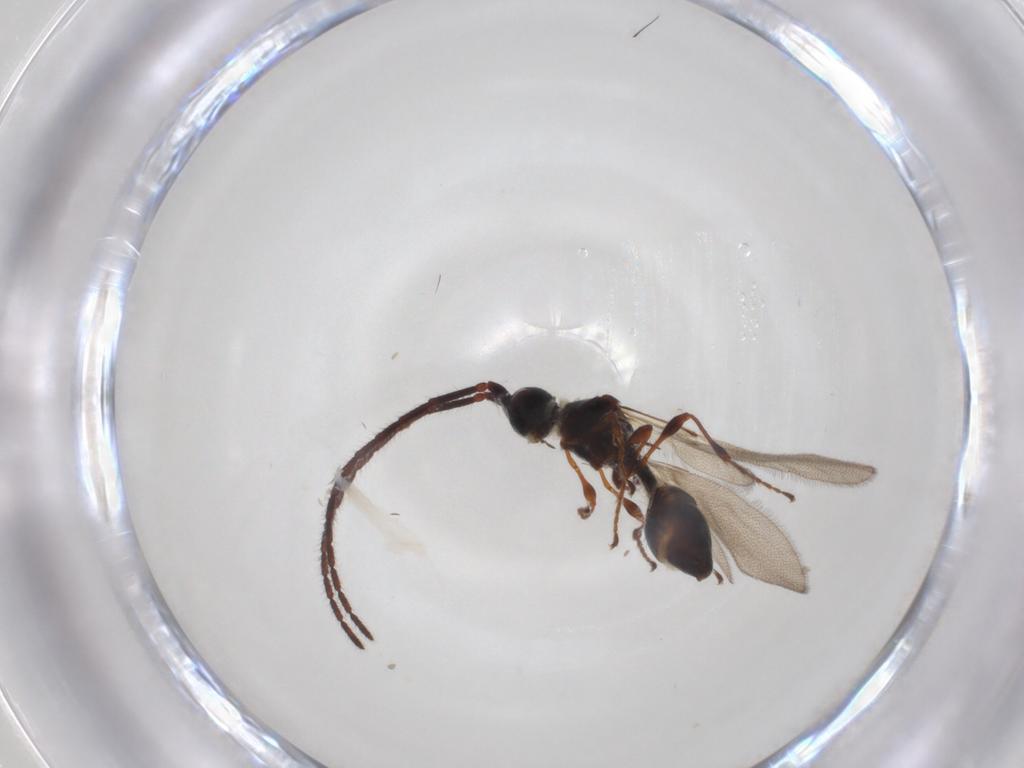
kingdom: Animalia
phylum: Arthropoda
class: Insecta
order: Hymenoptera
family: Diapriidae
